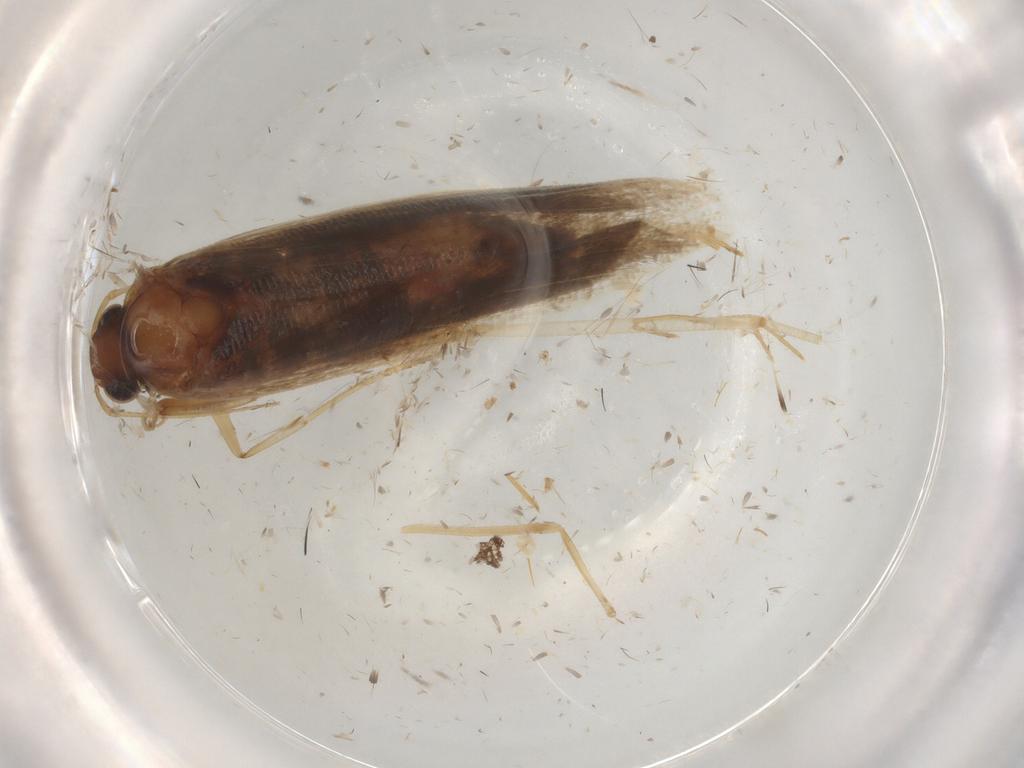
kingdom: Animalia
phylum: Arthropoda
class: Insecta
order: Lepidoptera
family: Gelechiidae
